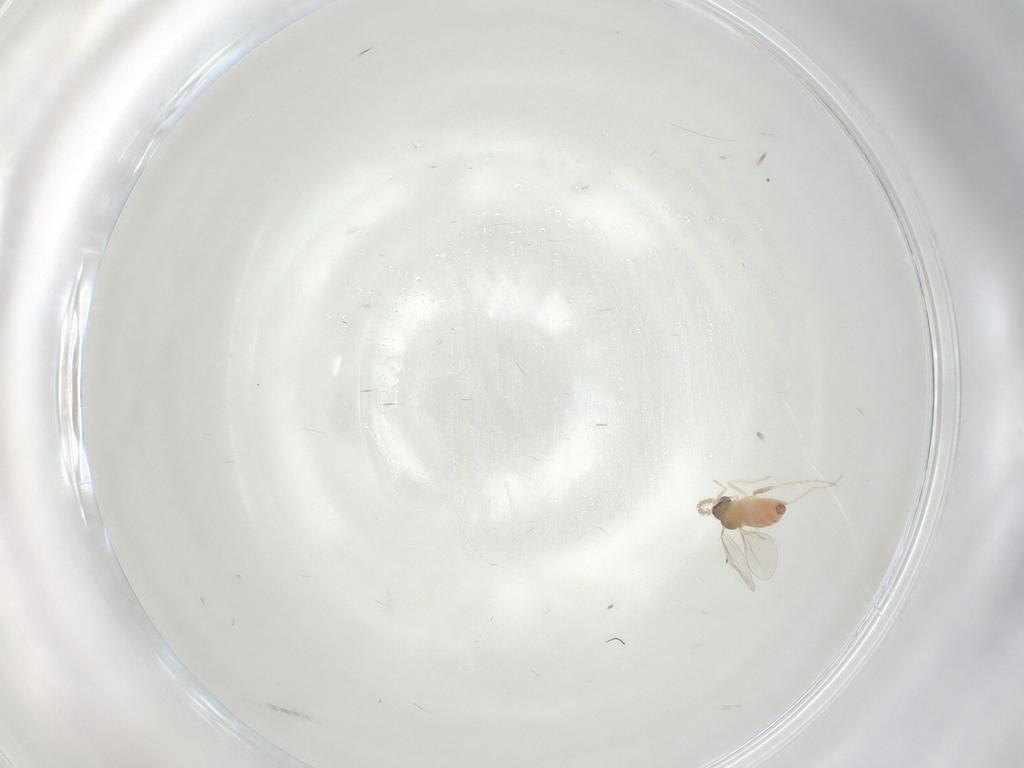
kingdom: Animalia
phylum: Arthropoda
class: Insecta
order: Diptera
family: Cecidomyiidae
